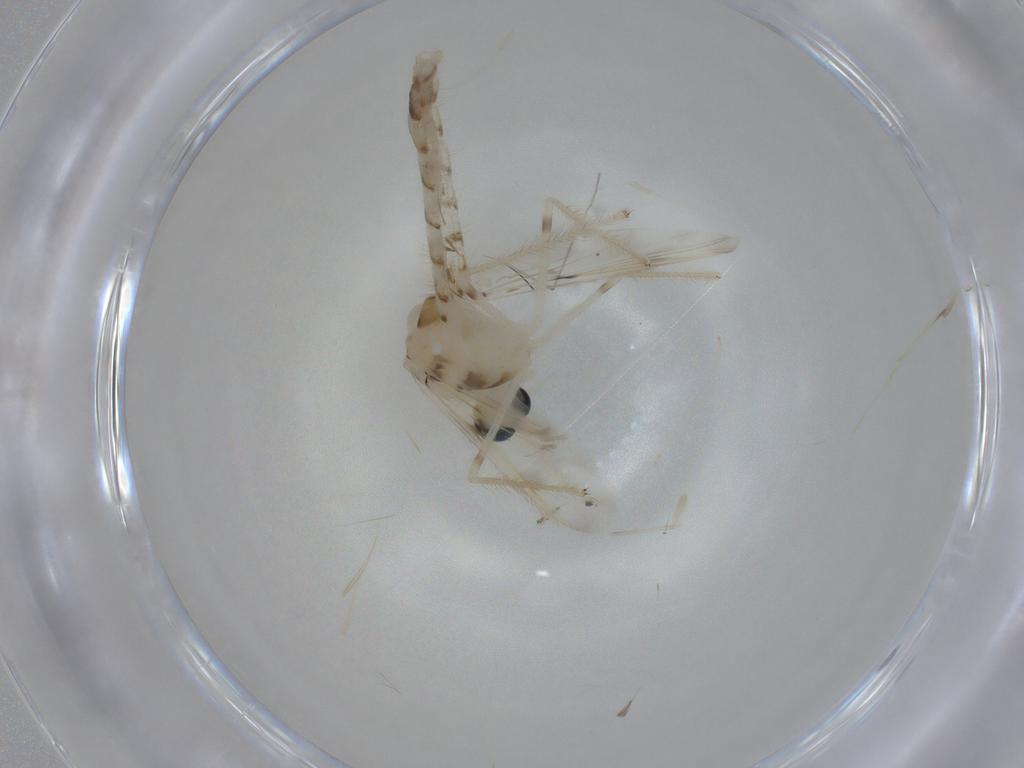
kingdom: Animalia
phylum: Arthropoda
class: Insecta
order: Diptera
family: Phoridae
